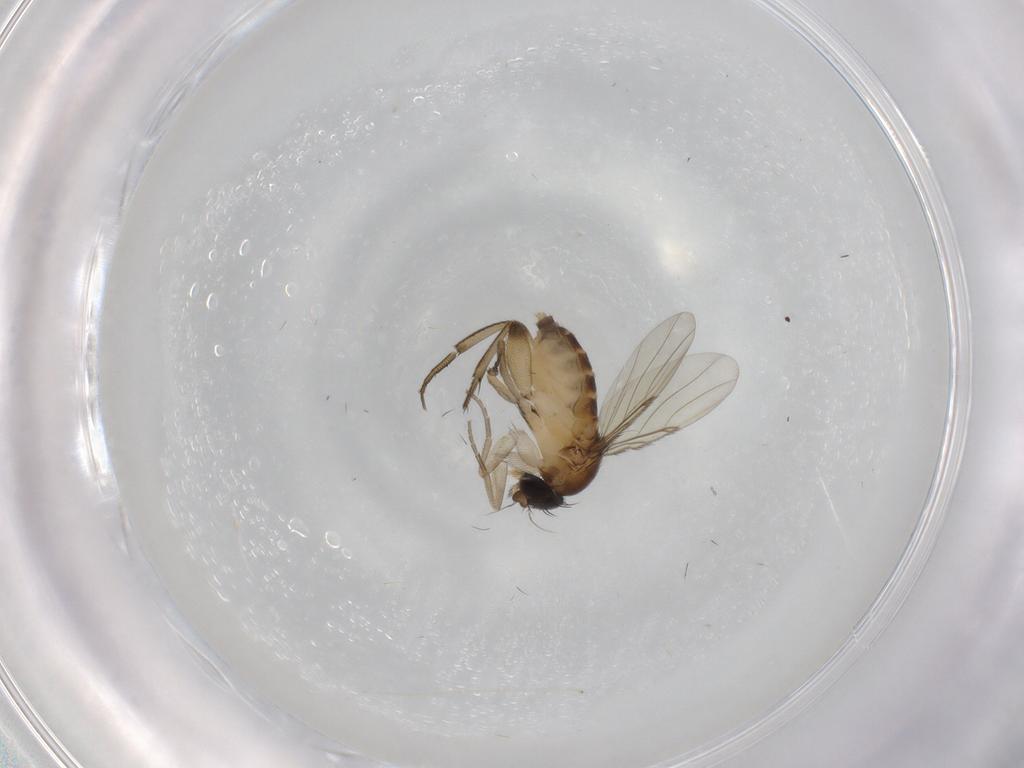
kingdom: Animalia
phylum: Arthropoda
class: Insecta
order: Diptera
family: Phoridae
